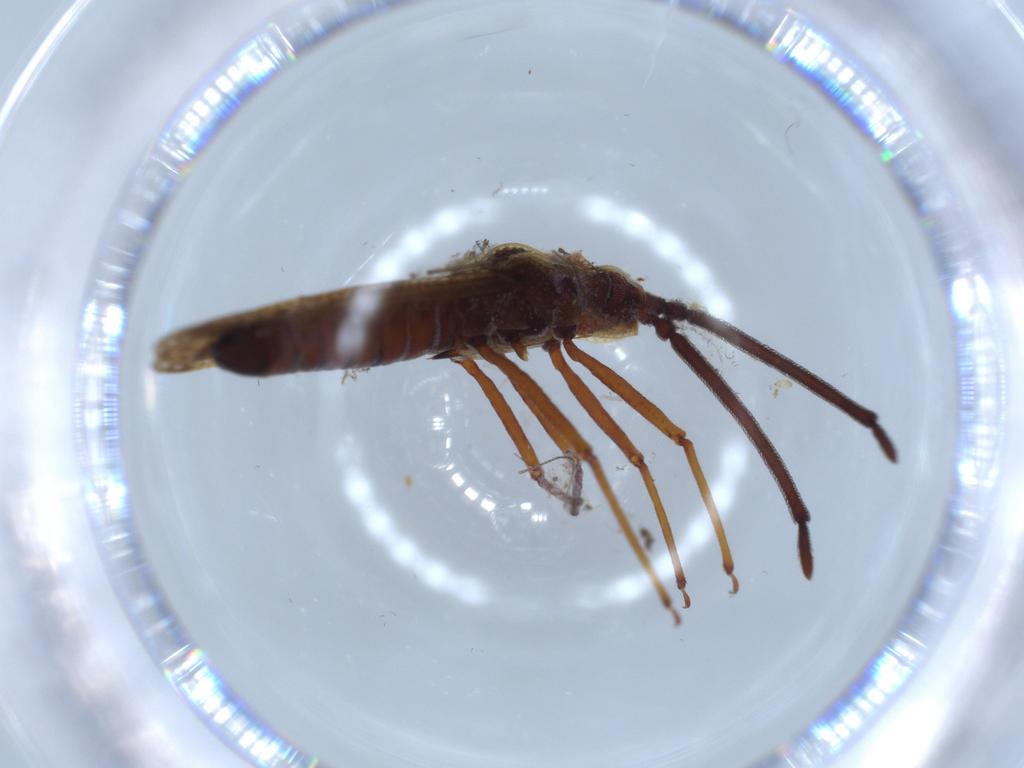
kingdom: Animalia
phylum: Arthropoda
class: Insecta
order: Hemiptera
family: Tingidae
